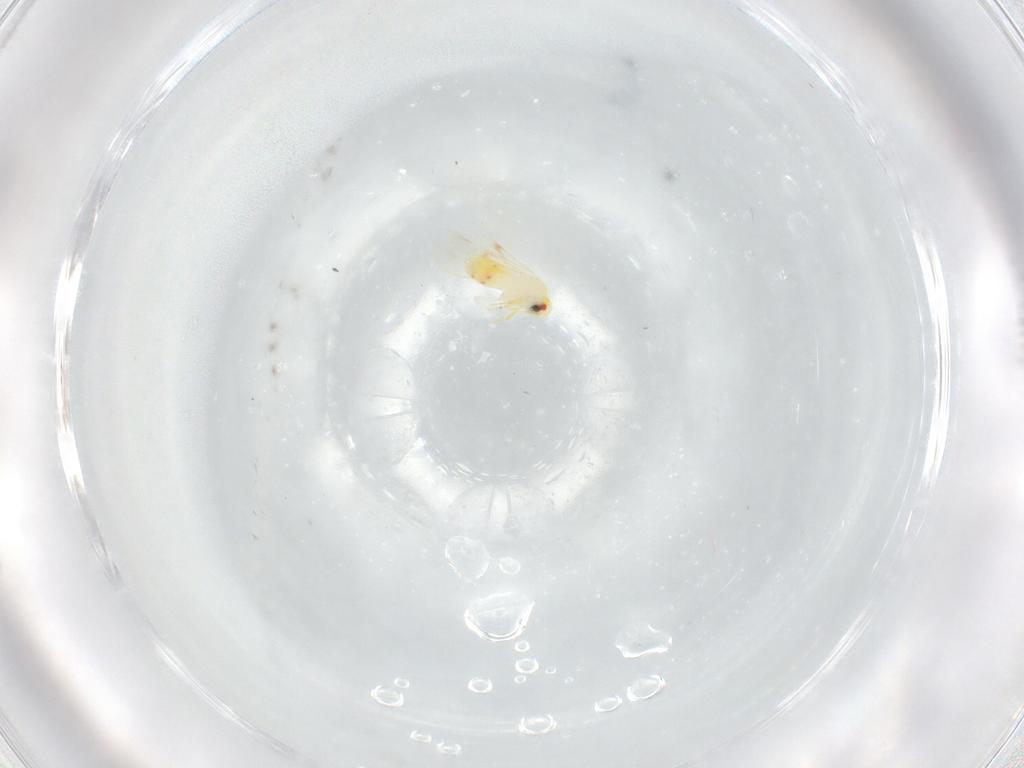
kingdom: Animalia
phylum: Arthropoda
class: Insecta
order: Hemiptera
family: Aleyrodidae
